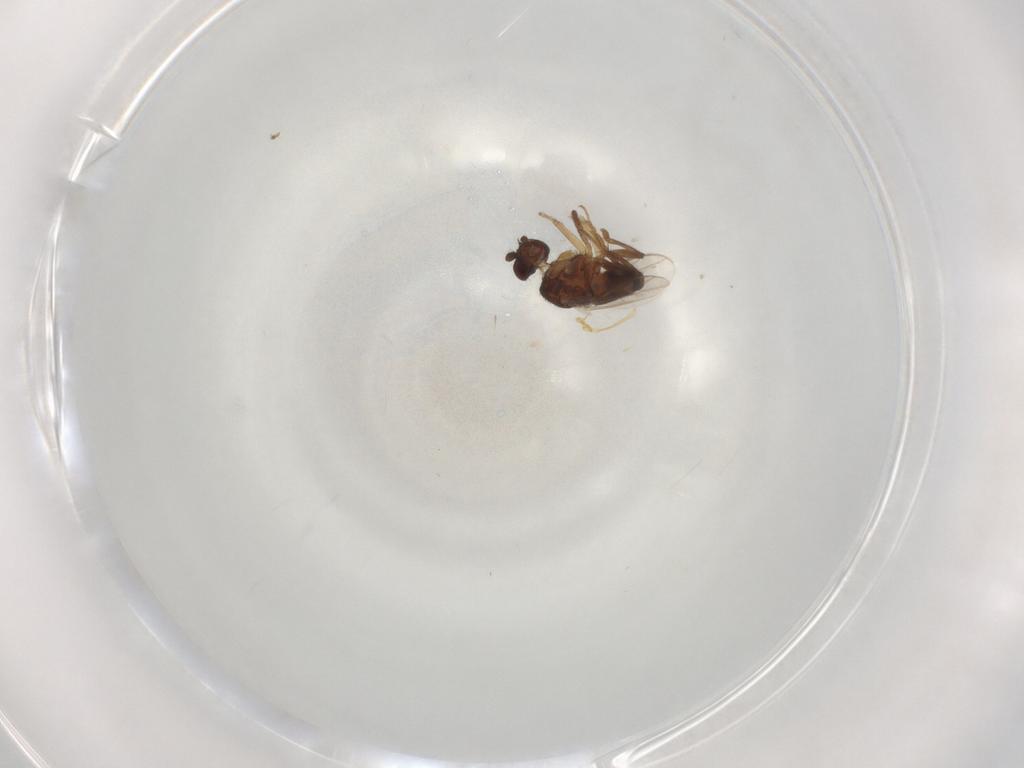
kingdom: Animalia
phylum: Arthropoda
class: Insecta
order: Diptera
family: Sphaeroceridae
